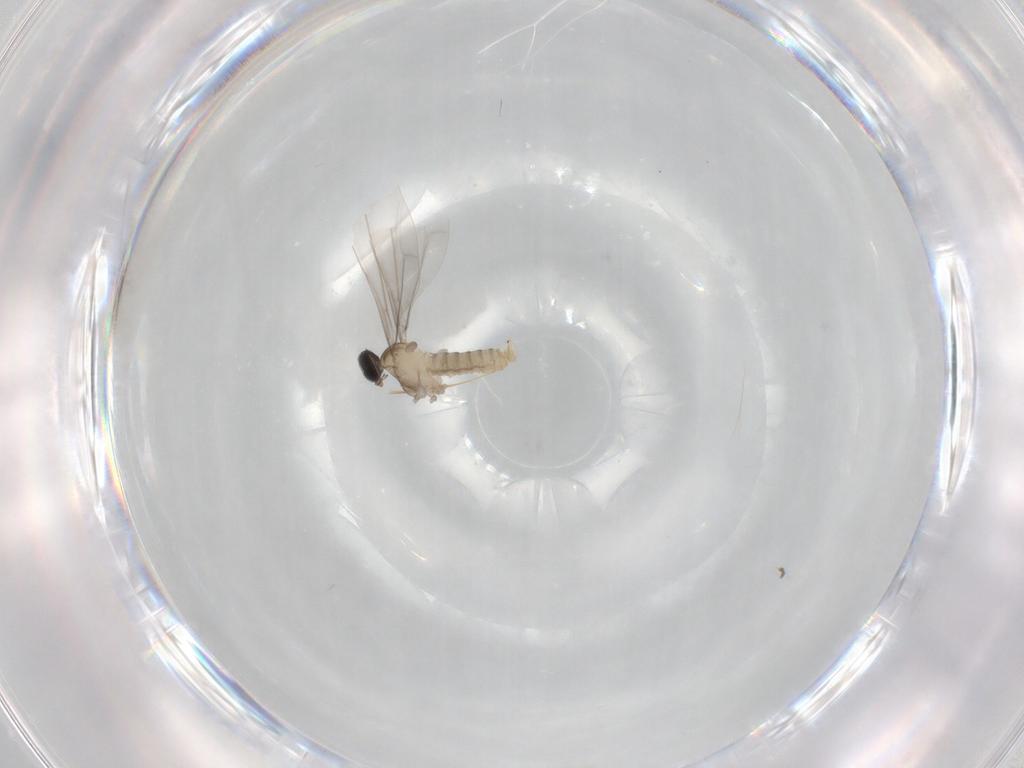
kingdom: Animalia
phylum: Arthropoda
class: Insecta
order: Diptera
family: Cecidomyiidae
